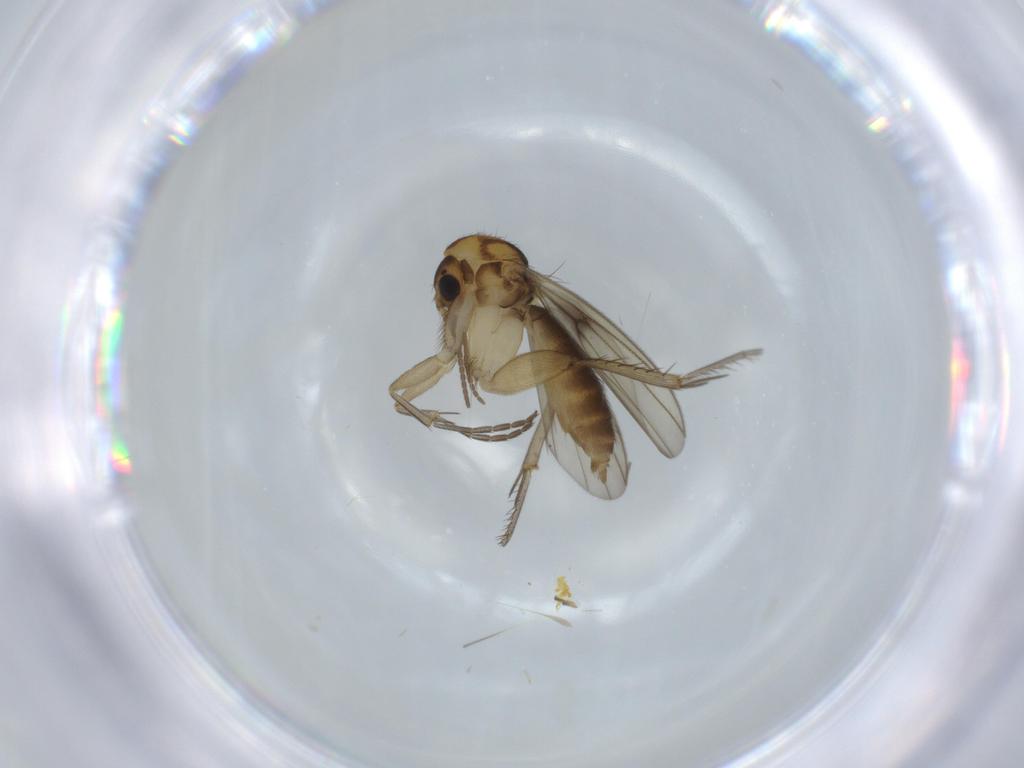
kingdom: Animalia
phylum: Arthropoda
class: Insecta
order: Diptera
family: Mycetophilidae
